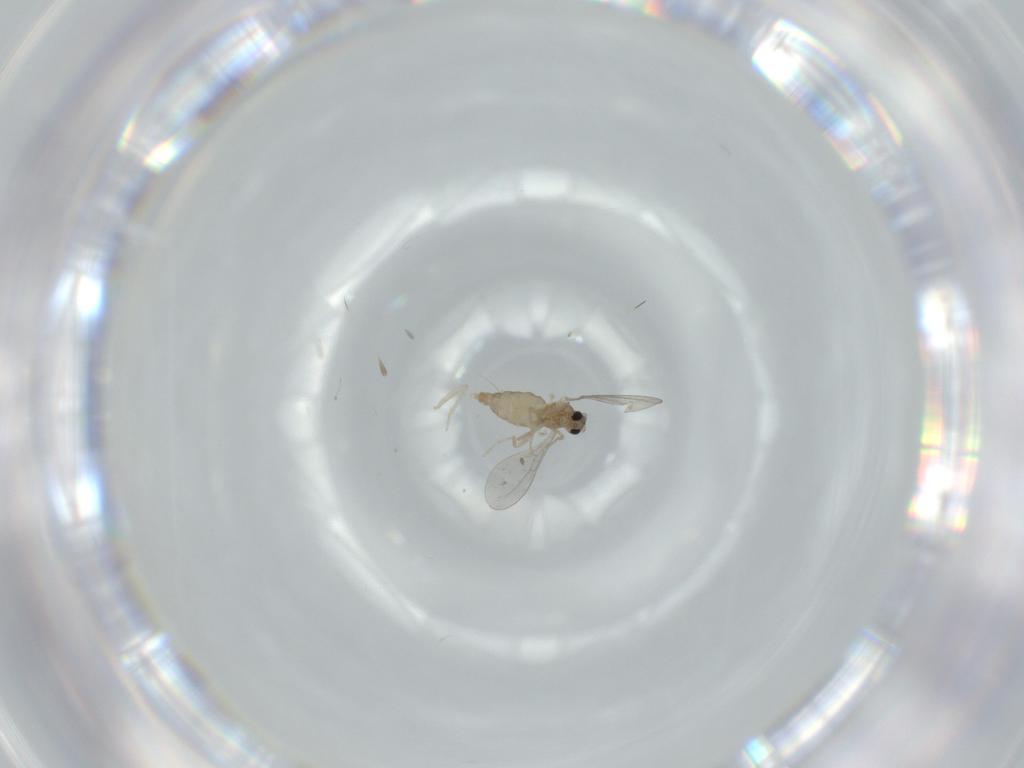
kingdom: Animalia
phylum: Arthropoda
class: Insecta
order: Diptera
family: Cecidomyiidae
